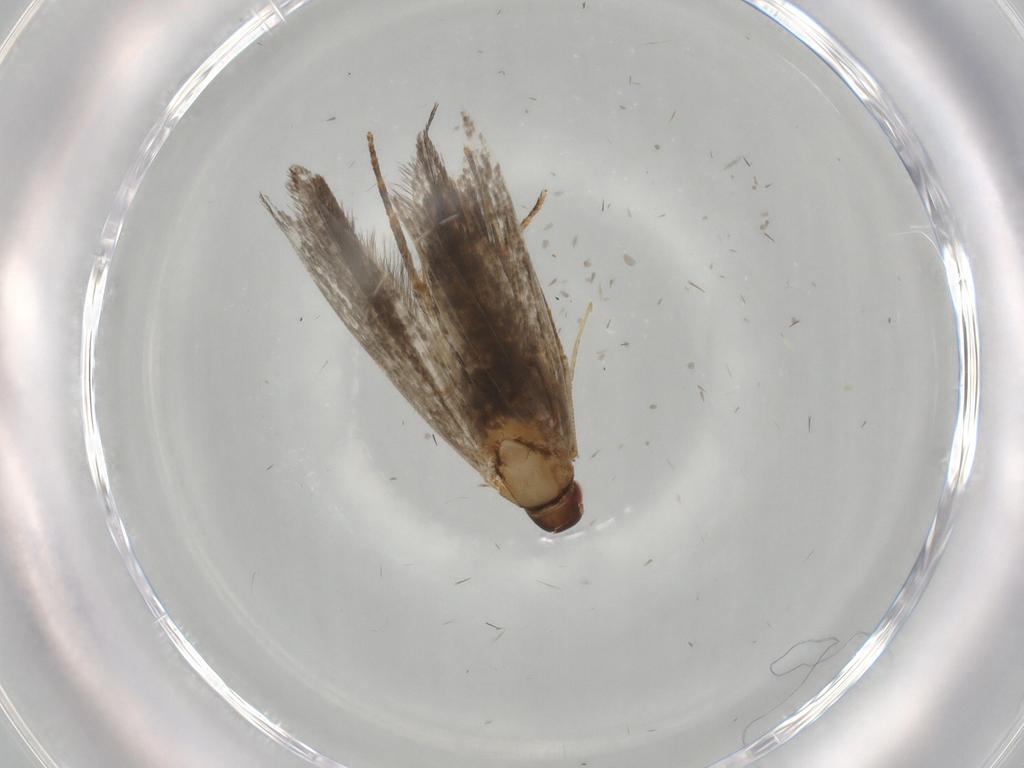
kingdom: Animalia
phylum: Arthropoda
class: Insecta
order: Lepidoptera
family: Gelechiidae
